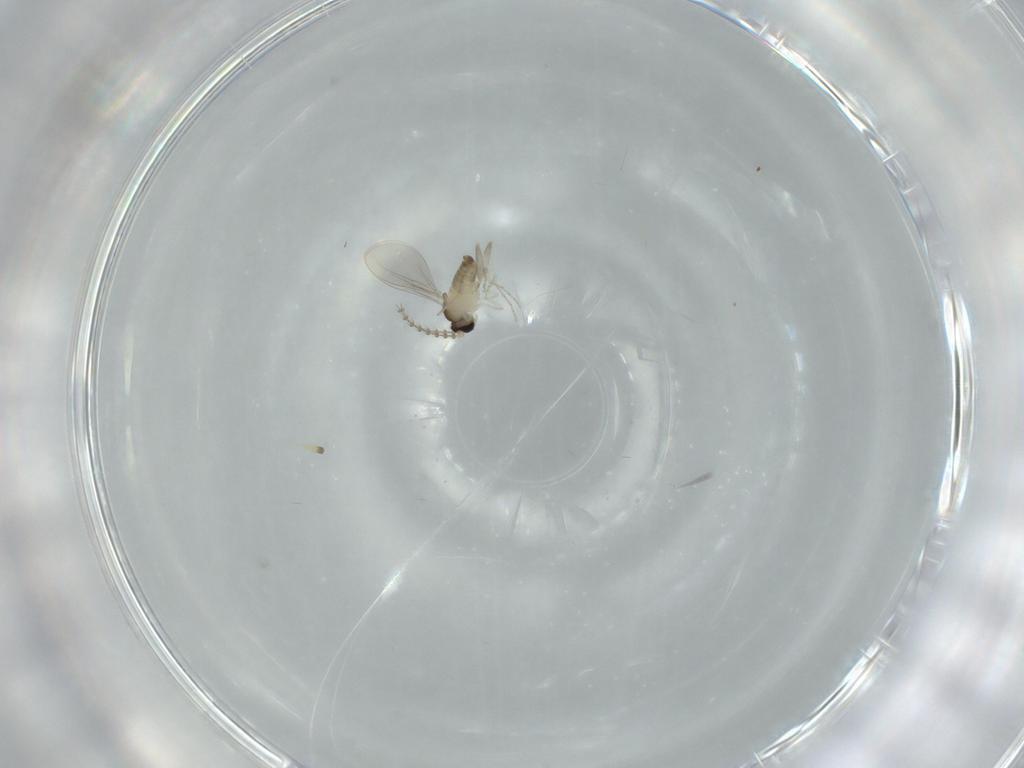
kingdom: Animalia
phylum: Arthropoda
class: Insecta
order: Diptera
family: Cecidomyiidae
